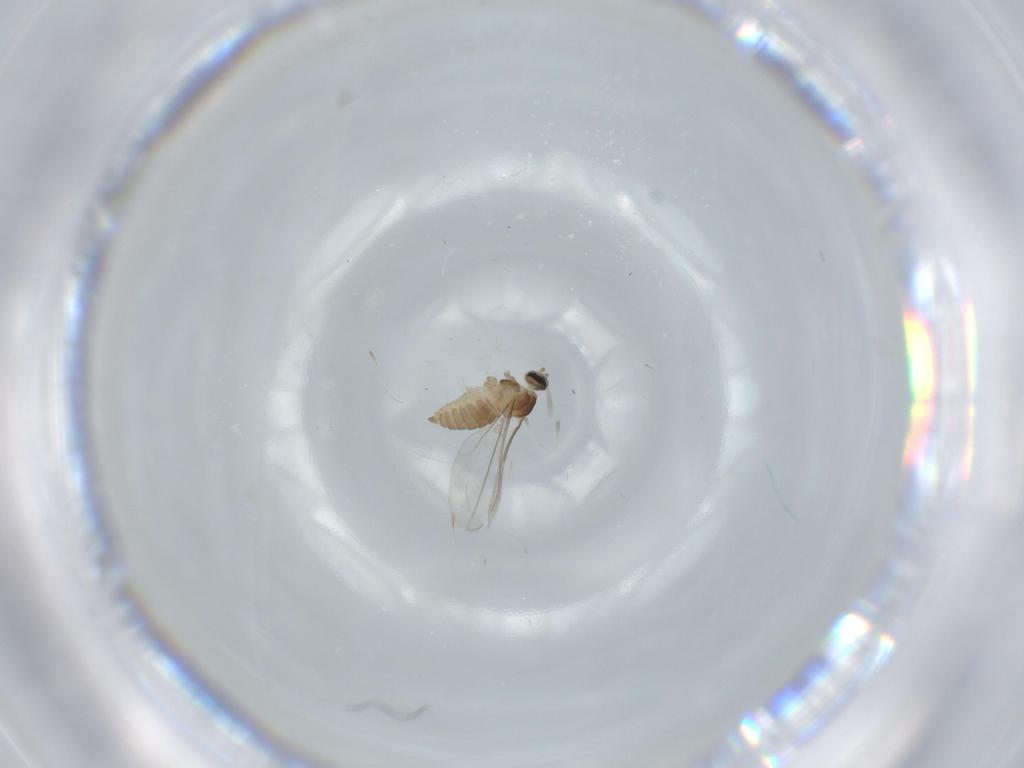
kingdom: Animalia
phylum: Arthropoda
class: Insecta
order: Diptera
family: Cecidomyiidae
